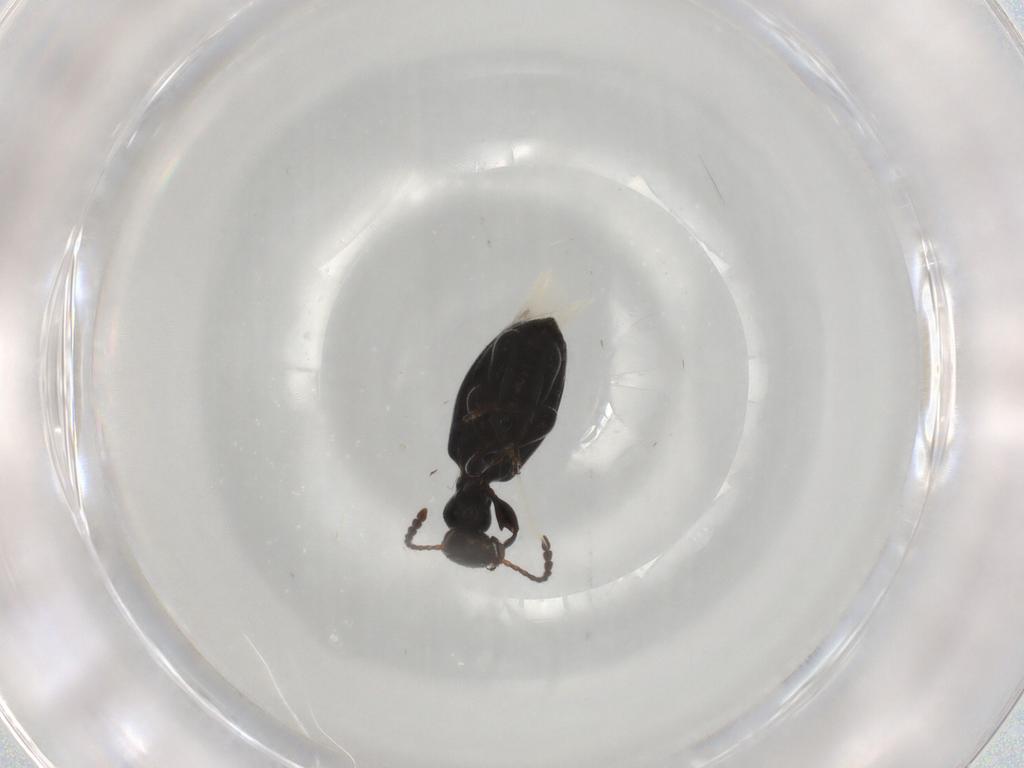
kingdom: Animalia
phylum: Arthropoda
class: Insecta
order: Coleoptera
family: Anthicidae
